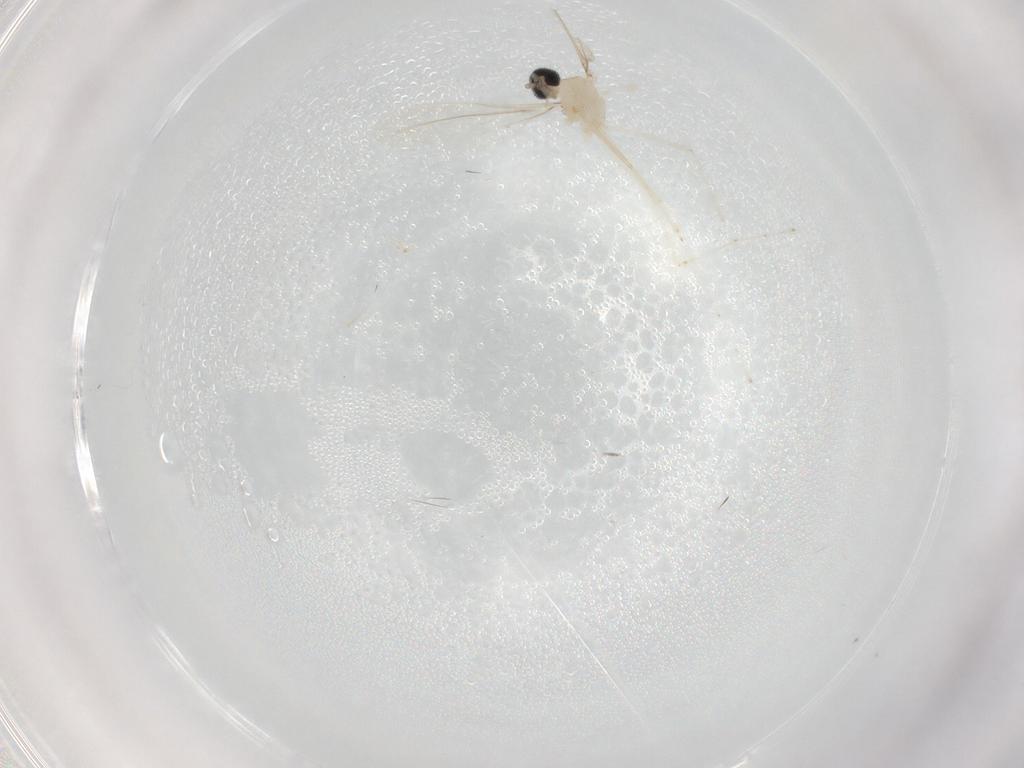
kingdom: Animalia
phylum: Arthropoda
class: Insecta
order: Diptera
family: Cecidomyiidae
